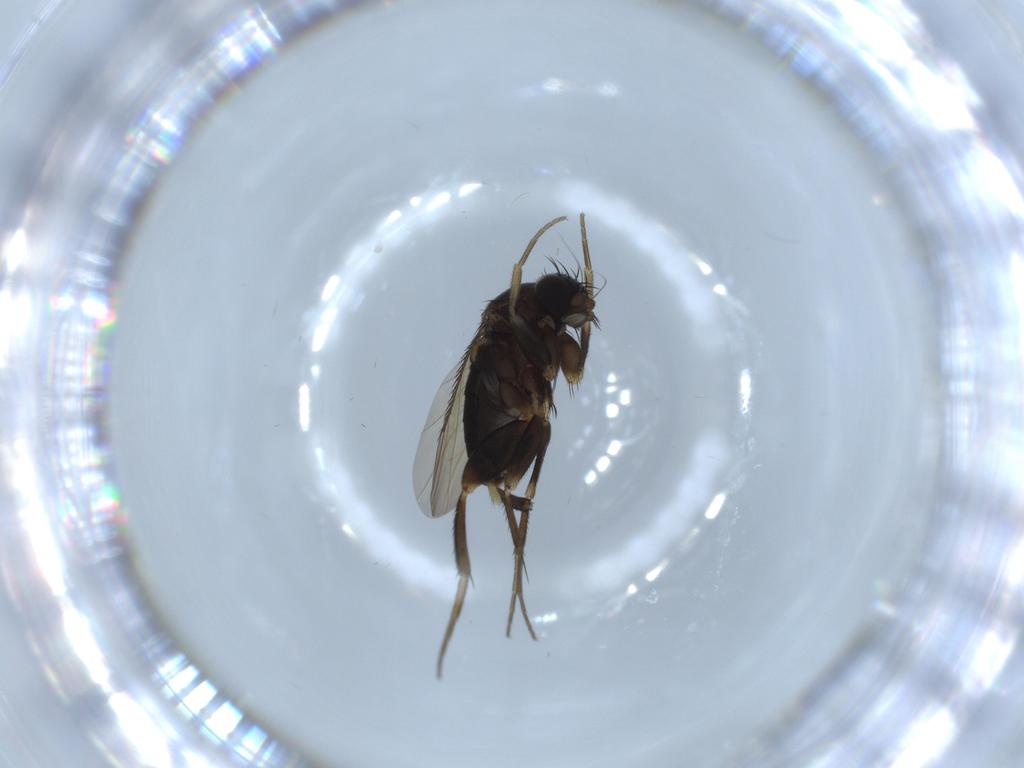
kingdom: Animalia
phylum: Arthropoda
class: Insecta
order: Diptera
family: Phoridae
